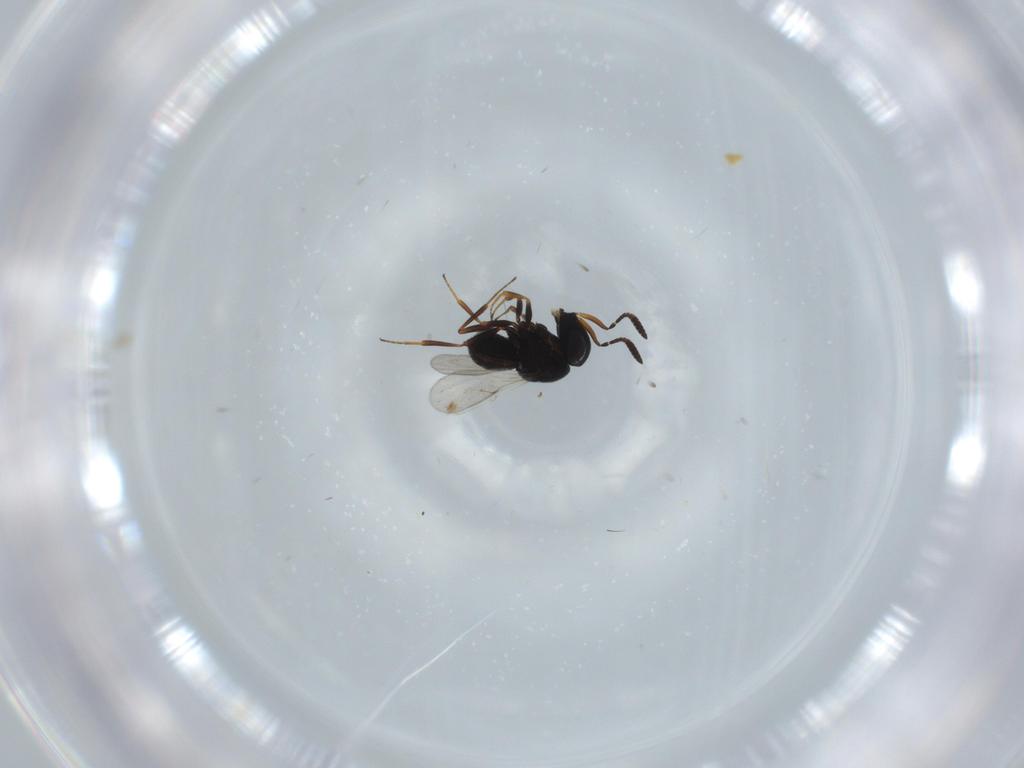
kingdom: Animalia
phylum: Arthropoda
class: Insecta
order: Hymenoptera
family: Scelionidae
